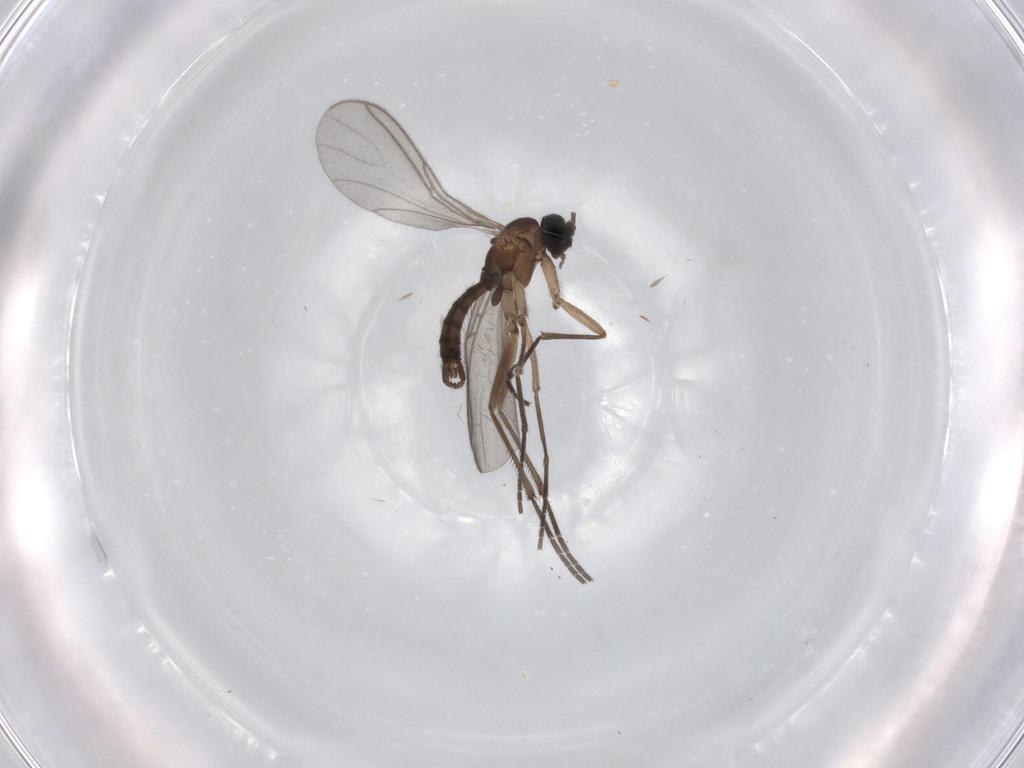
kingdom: Animalia
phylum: Arthropoda
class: Insecta
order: Diptera
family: Sciaridae
